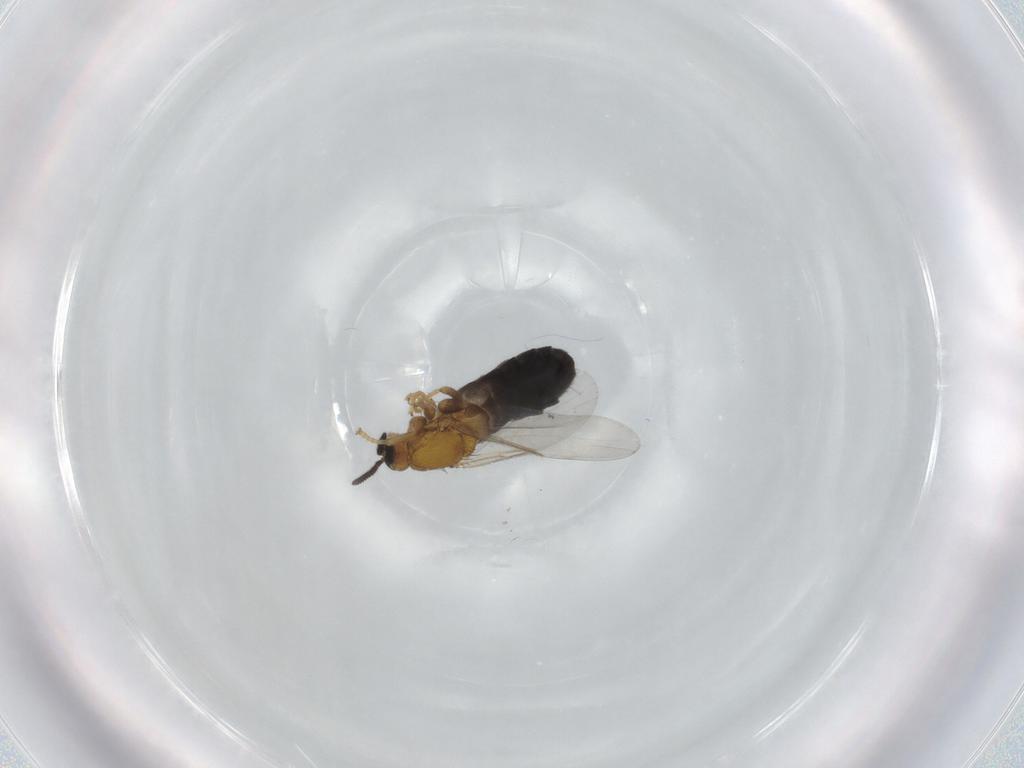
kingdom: Animalia
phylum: Arthropoda
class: Insecta
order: Diptera
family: Scatopsidae
